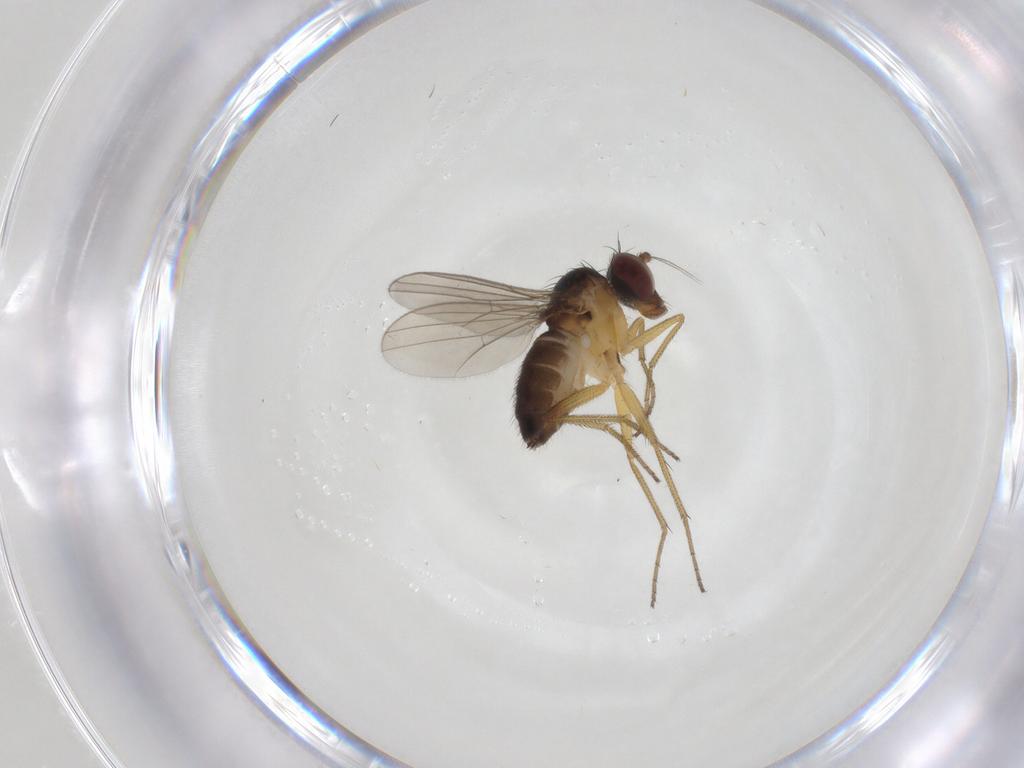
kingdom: Animalia
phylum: Arthropoda
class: Insecta
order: Diptera
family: Dolichopodidae
